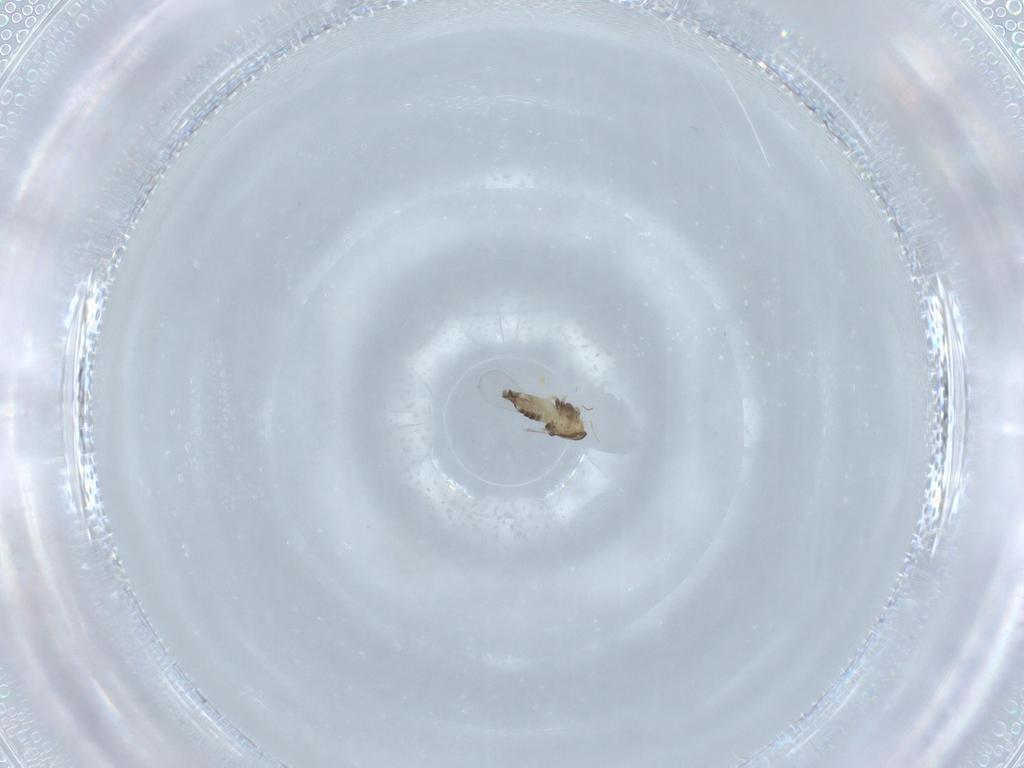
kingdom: Animalia
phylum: Arthropoda
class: Insecta
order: Diptera
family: Chironomidae
